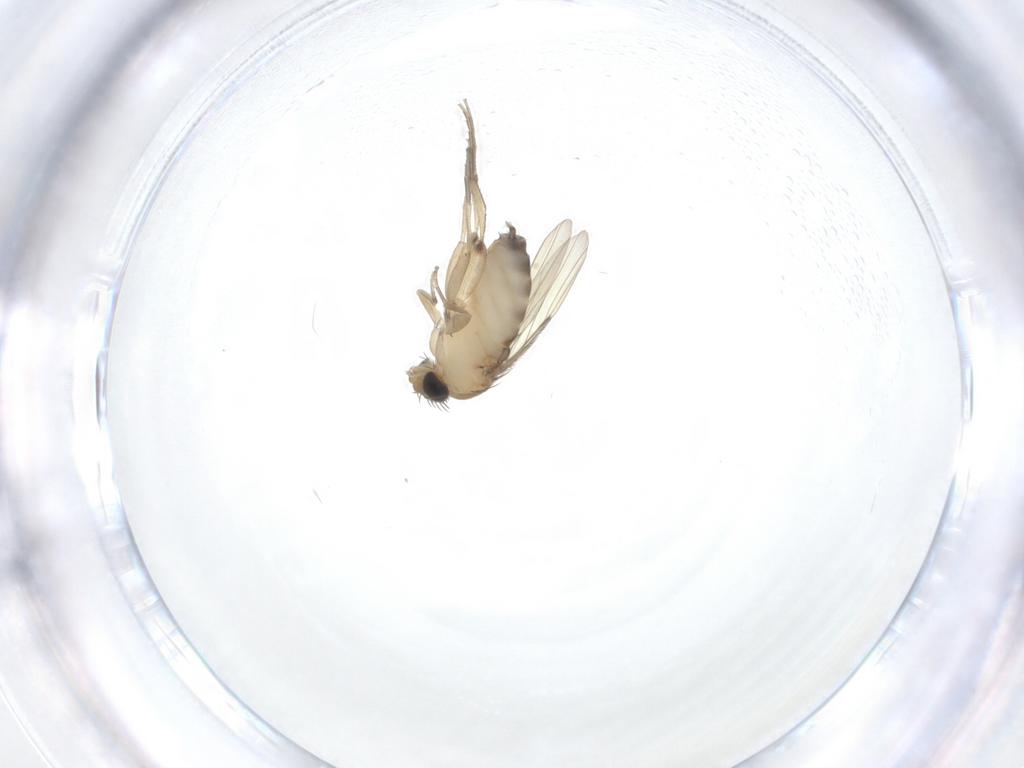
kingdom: Animalia
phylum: Arthropoda
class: Insecta
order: Diptera
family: Phoridae
